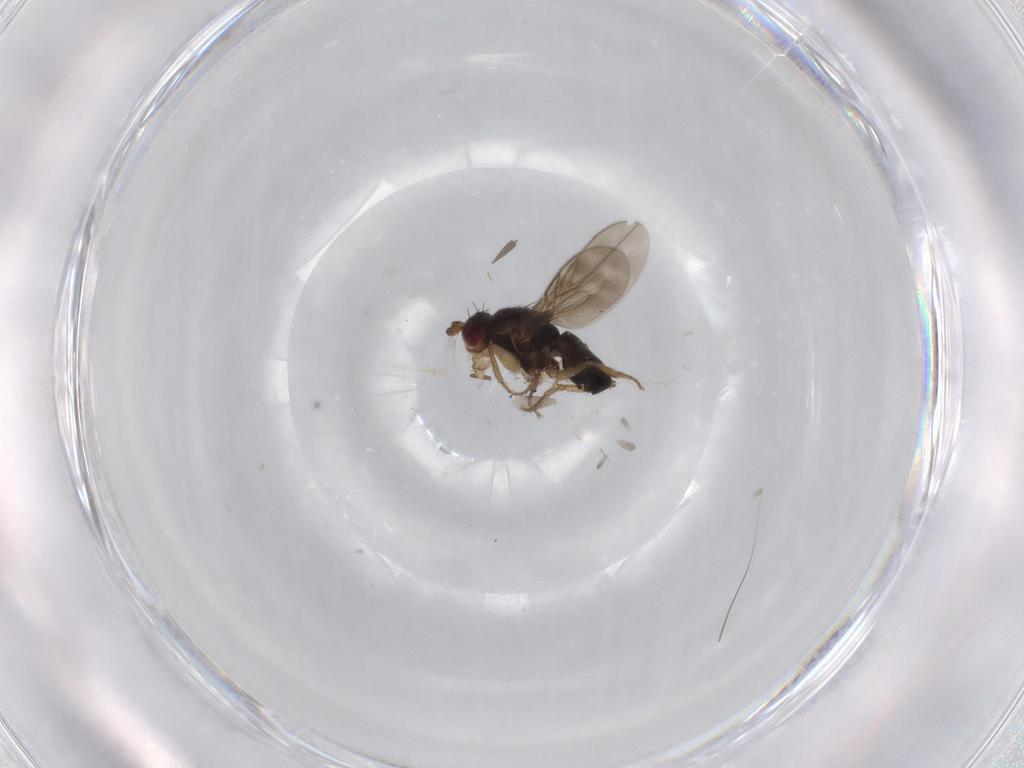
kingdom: Animalia
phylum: Arthropoda
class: Insecta
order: Diptera
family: Sphaeroceridae
